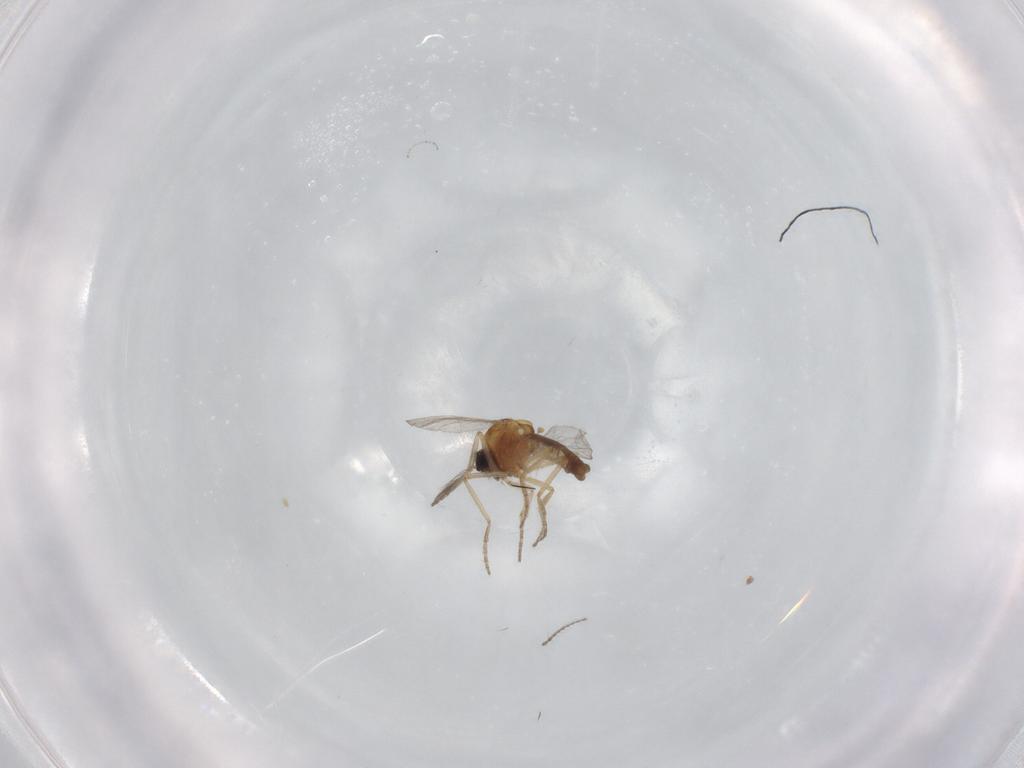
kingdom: Animalia
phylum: Arthropoda
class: Insecta
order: Diptera
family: Limoniidae
